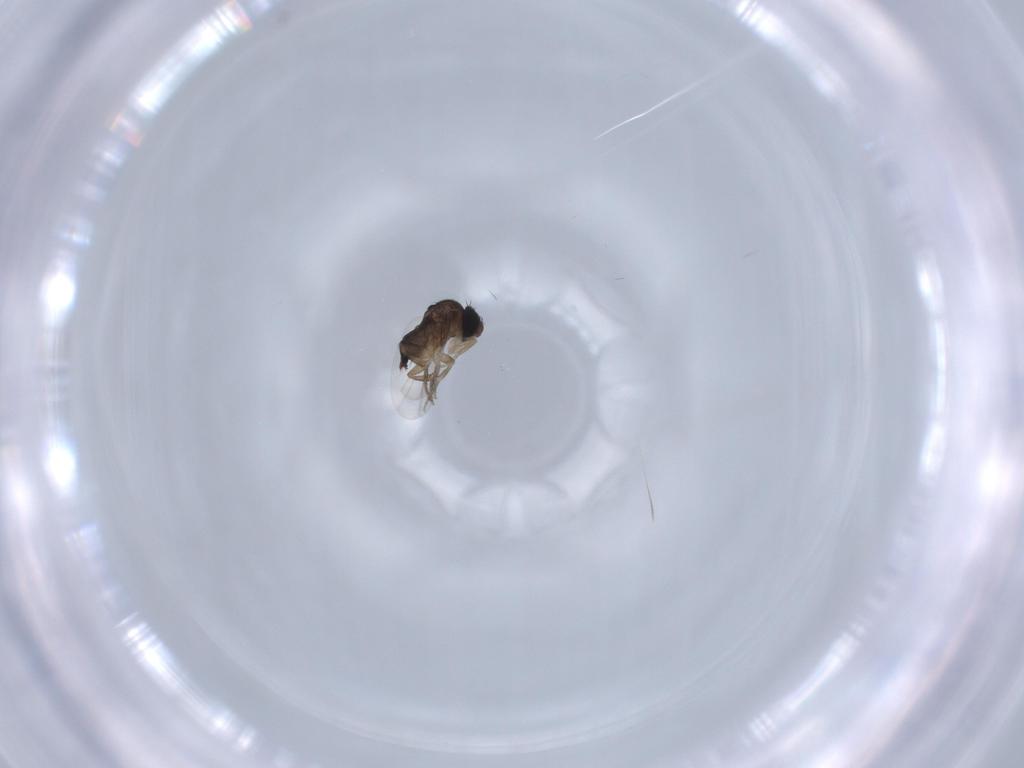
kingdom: Animalia
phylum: Arthropoda
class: Insecta
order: Diptera
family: Phoridae
